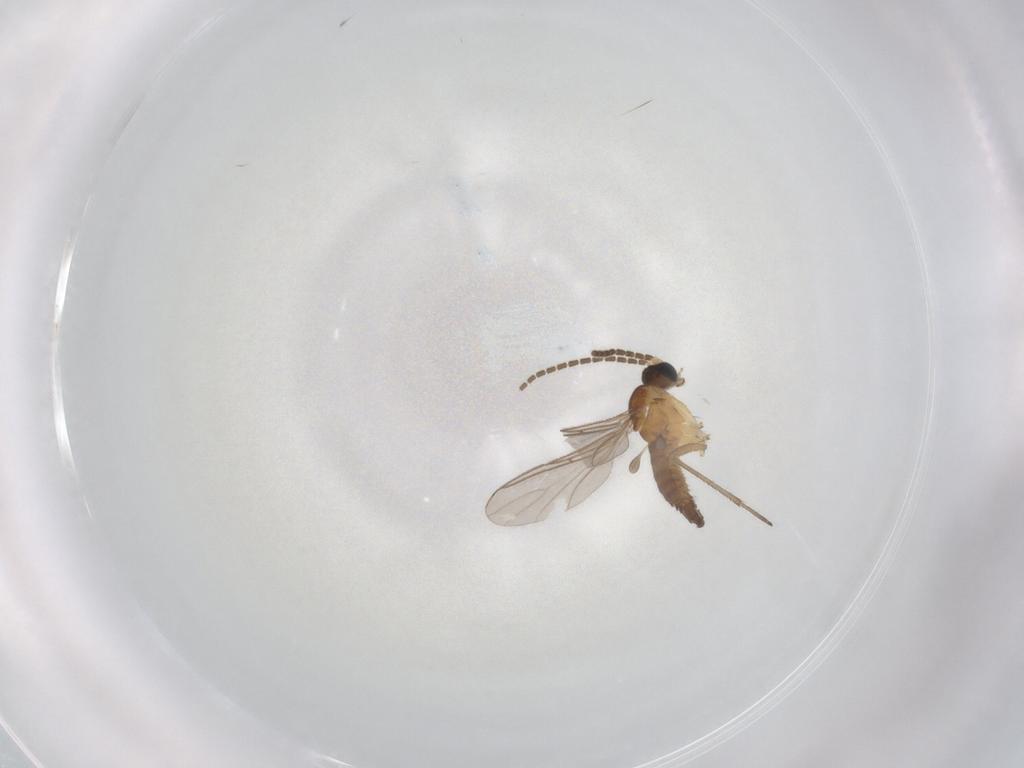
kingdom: Animalia
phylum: Arthropoda
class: Insecta
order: Diptera
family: Sciaridae
